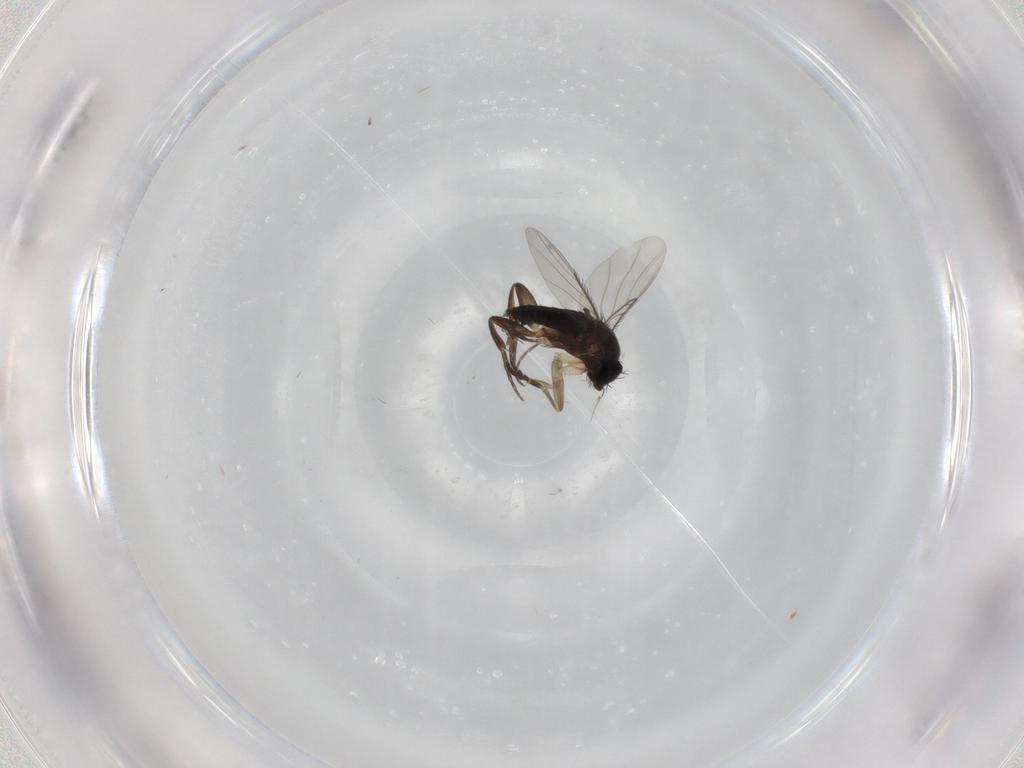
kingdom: Animalia
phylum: Arthropoda
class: Insecta
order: Diptera
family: Phoridae
